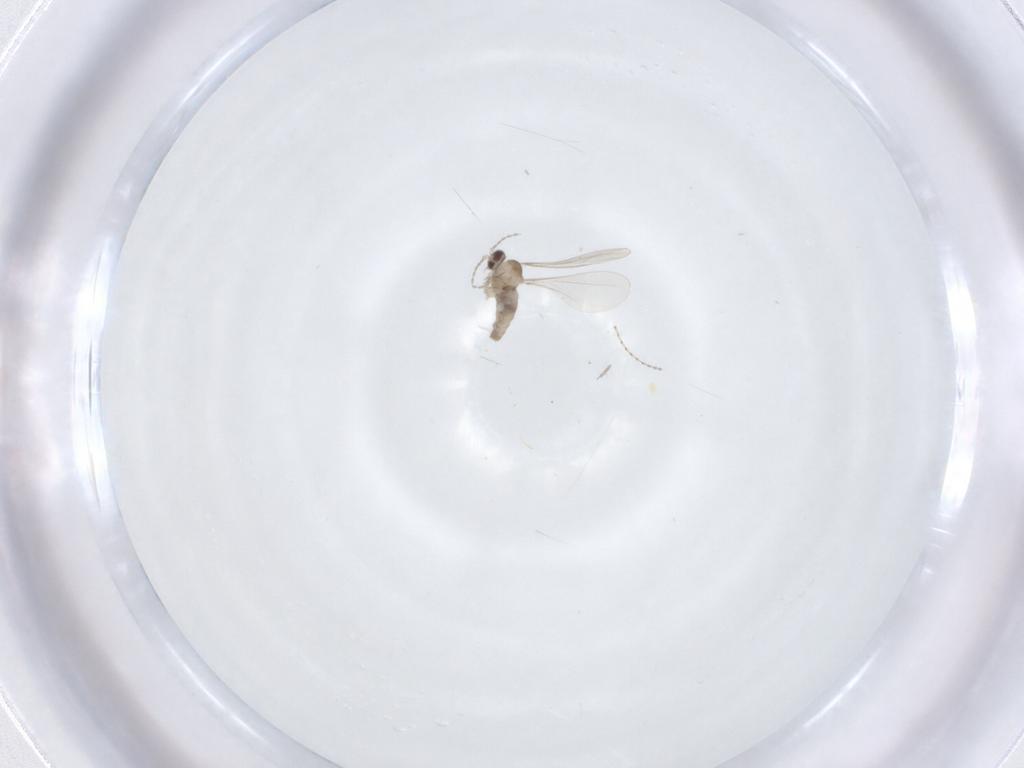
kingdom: Animalia
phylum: Arthropoda
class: Insecta
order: Diptera
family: Cecidomyiidae
